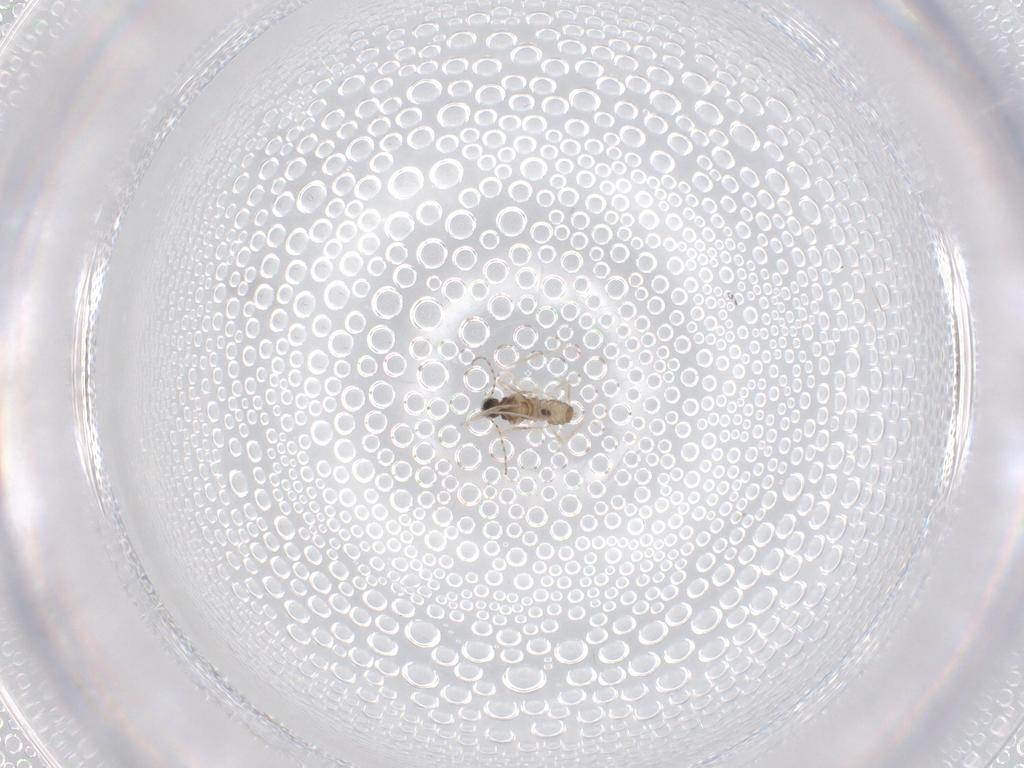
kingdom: Animalia
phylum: Arthropoda
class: Insecta
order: Diptera
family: Cecidomyiidae
